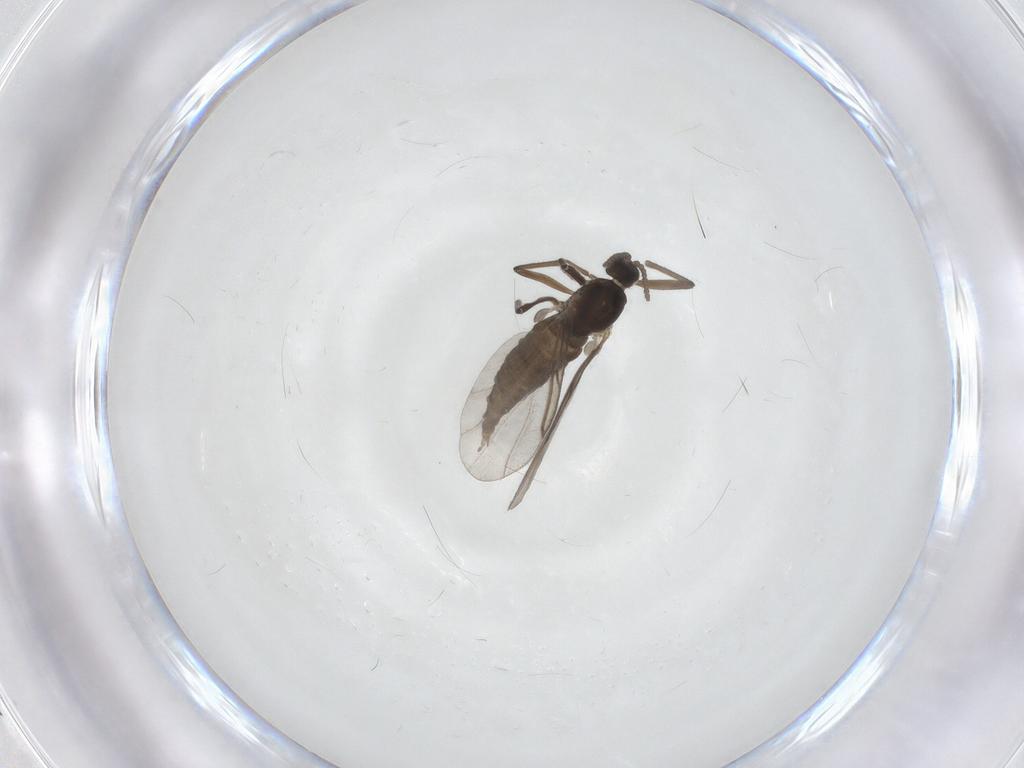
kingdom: Animalia
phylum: Arthropoda
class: Insecta
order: Diptera
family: Cecidomyiidae
